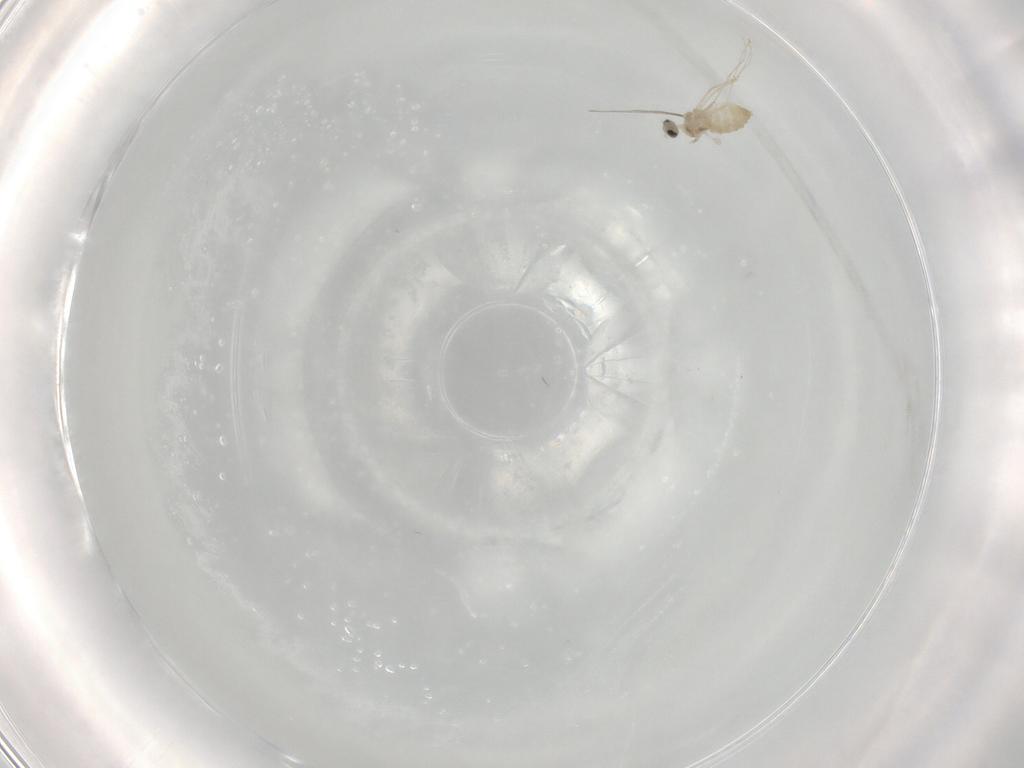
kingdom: Animalia
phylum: Arthropoda
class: Insecta
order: Diptera
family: Cecidomyiidae
